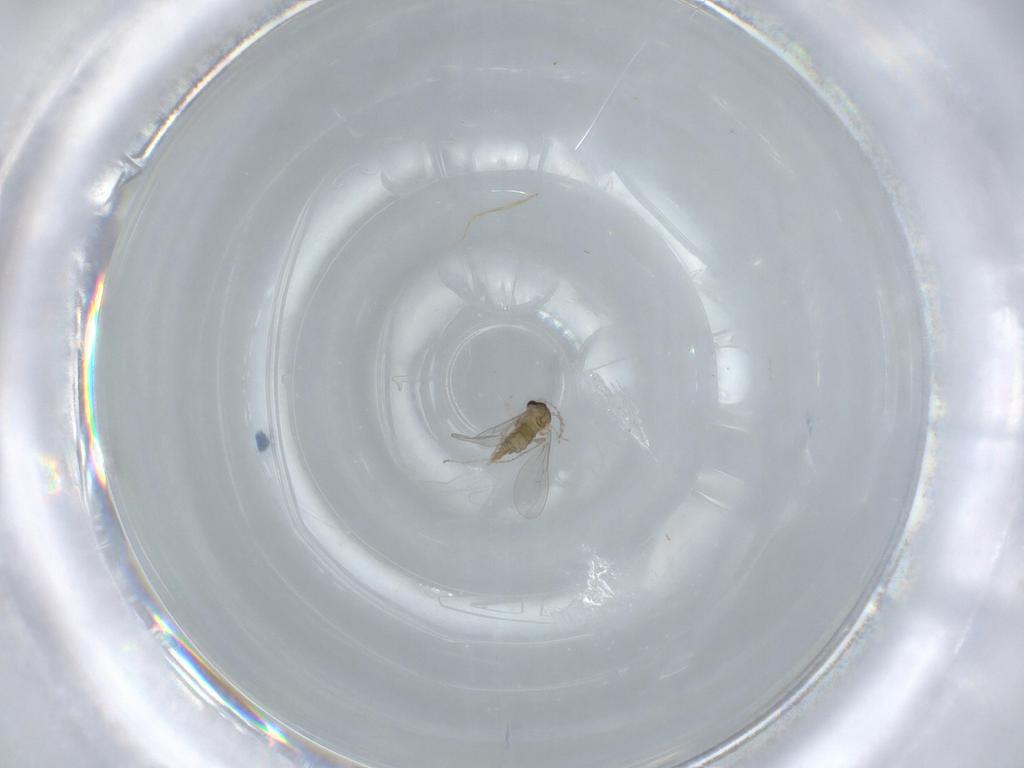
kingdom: Animalia
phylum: Arthropoda
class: Insecta
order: Diptera
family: Cecidomyiidae
